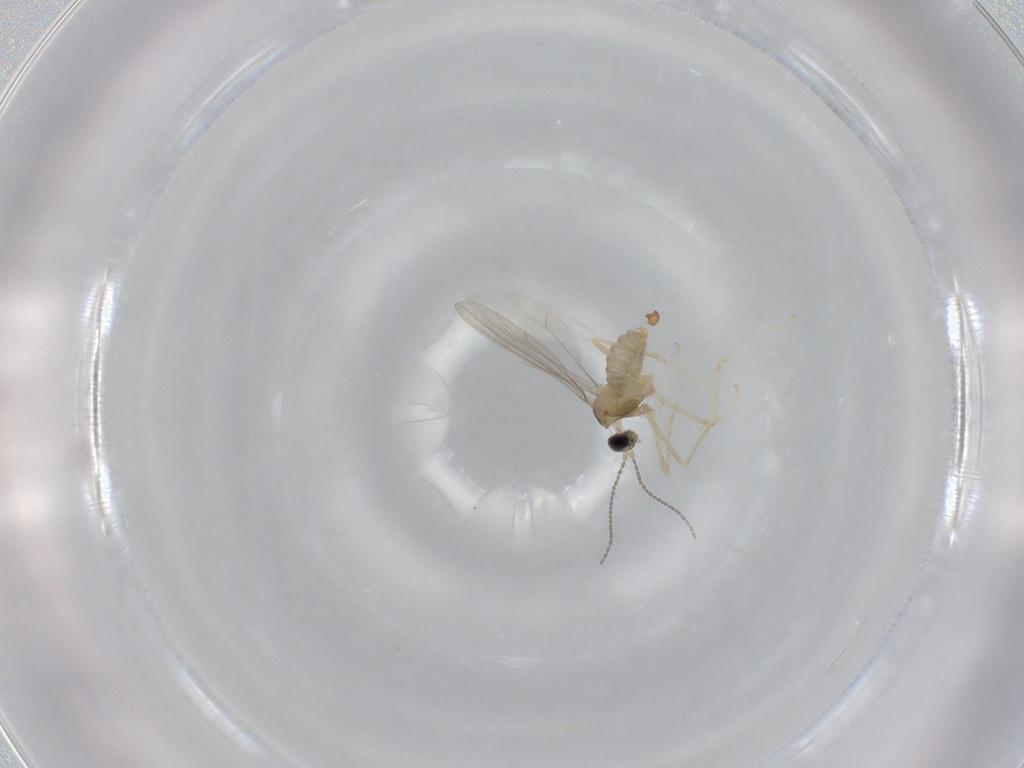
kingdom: Animalia
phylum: Arthropoda
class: Insecta
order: Diptera
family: Cecidomyiidae
